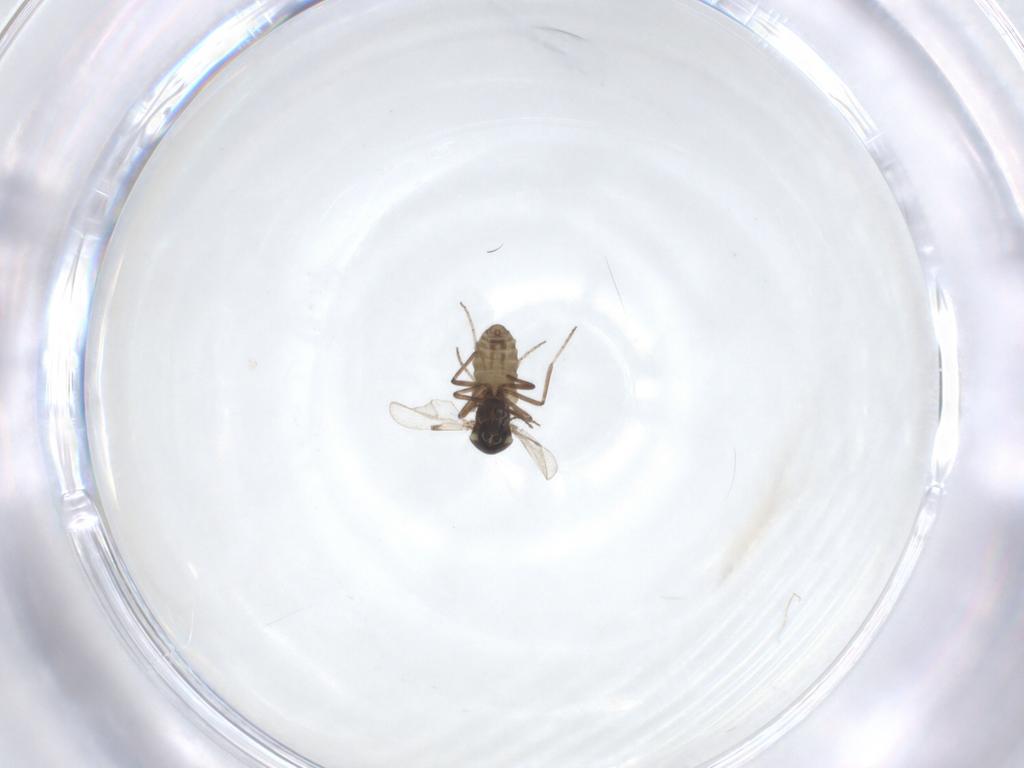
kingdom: Animalia
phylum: Arthropoda
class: Insecta
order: Diptera
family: Ceratopogonidae
